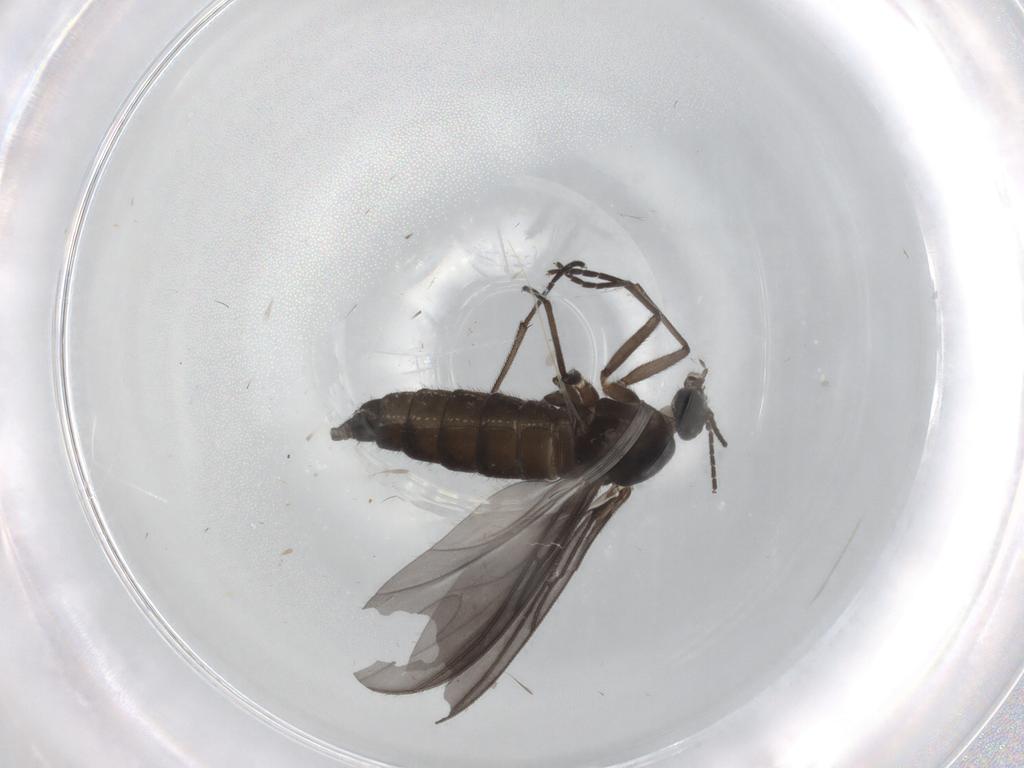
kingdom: Animalia
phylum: Arthropoda
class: Insecta
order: Diptera
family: Sciaridae
